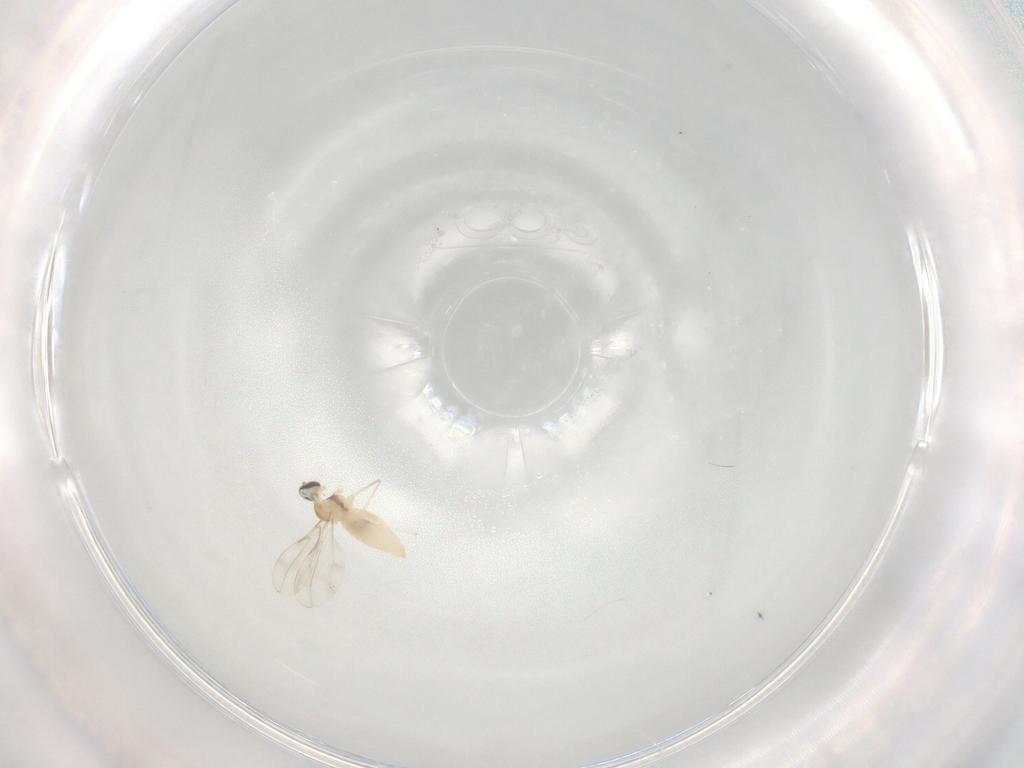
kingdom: Animalia
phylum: Arthropoda
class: Insecta
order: Diptera
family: Cecidomyiidae
